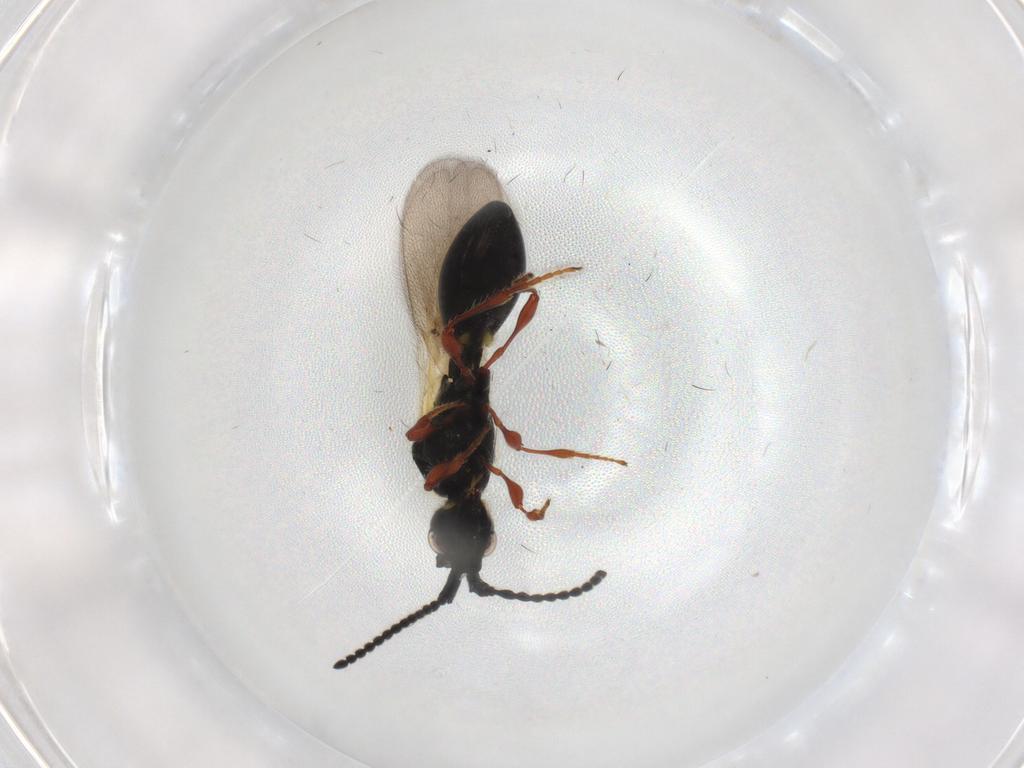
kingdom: Animalia
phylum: Arthropoda
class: Insecta
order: Hymenoptera
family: Diapriidae
